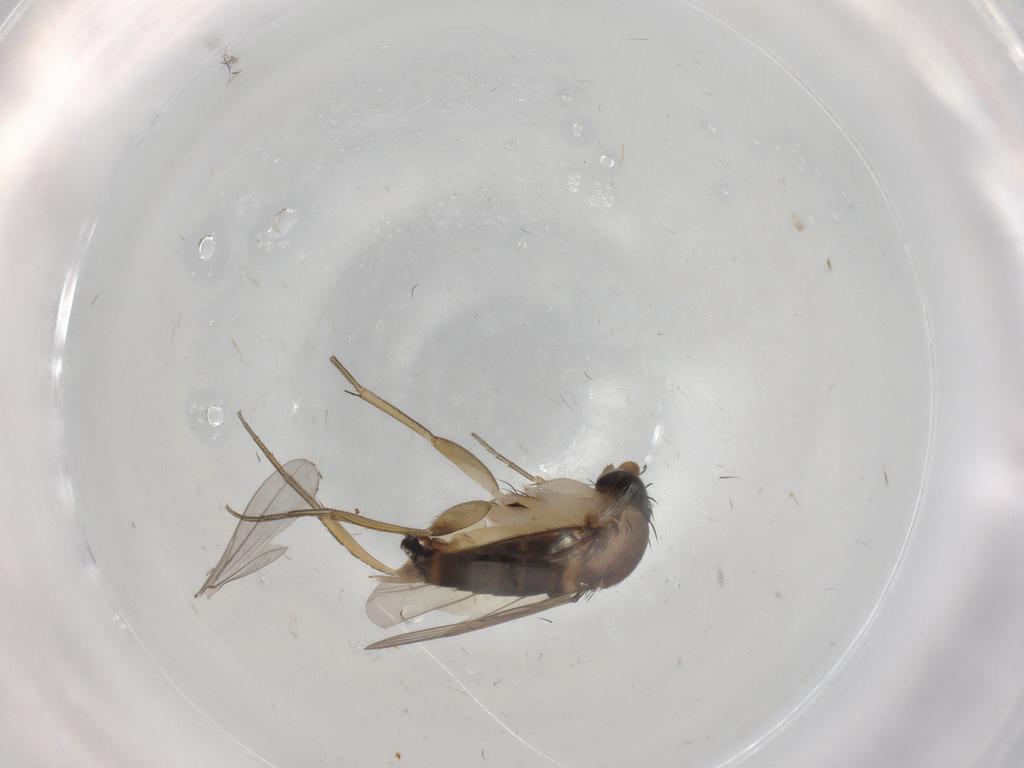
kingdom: Animalia
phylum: Arthropoda
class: Insecta
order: Diptera
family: Phoridae
